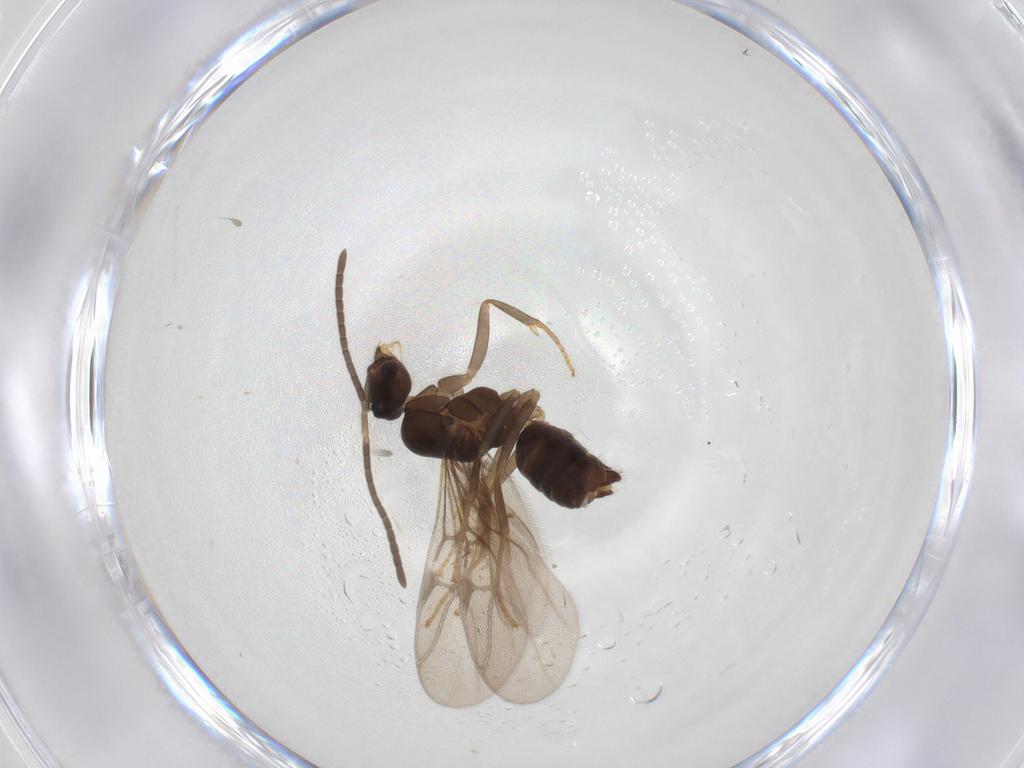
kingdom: Animalia
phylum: Arthropoda
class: Insecta
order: Hymenoptera
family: Formicidae
